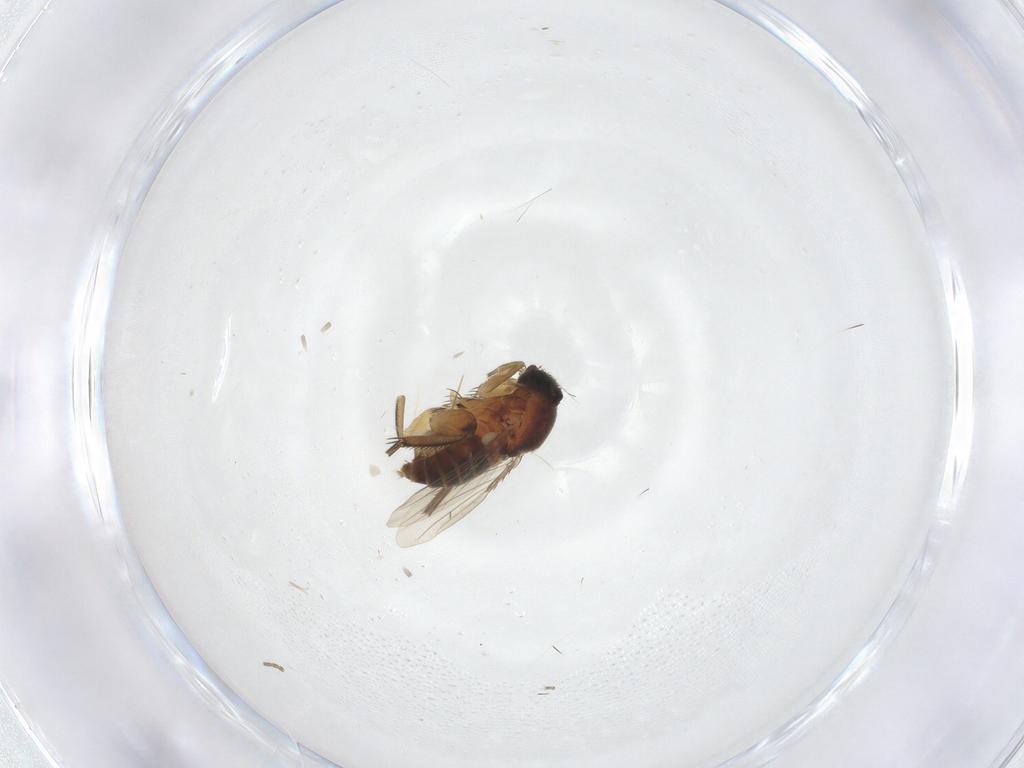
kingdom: Animalia
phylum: Arthropoda
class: Insecta
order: Diptera
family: Phoridae
